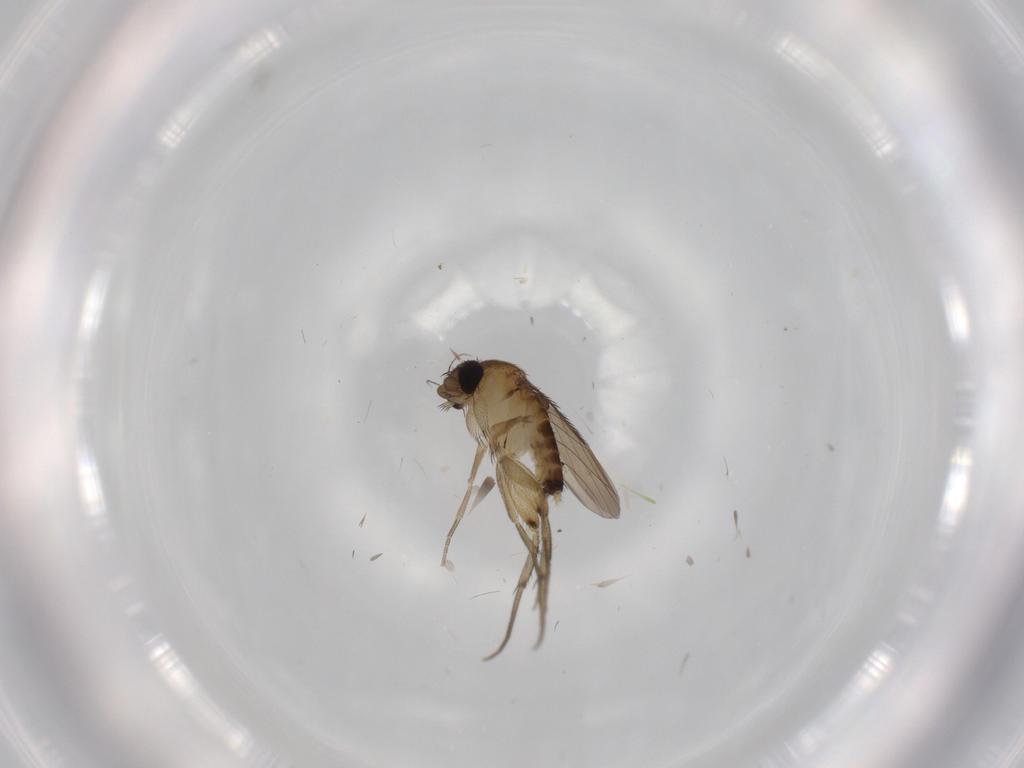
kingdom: Animalia
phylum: Arthropoda
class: Insecta
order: Diptera
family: Phoridae
